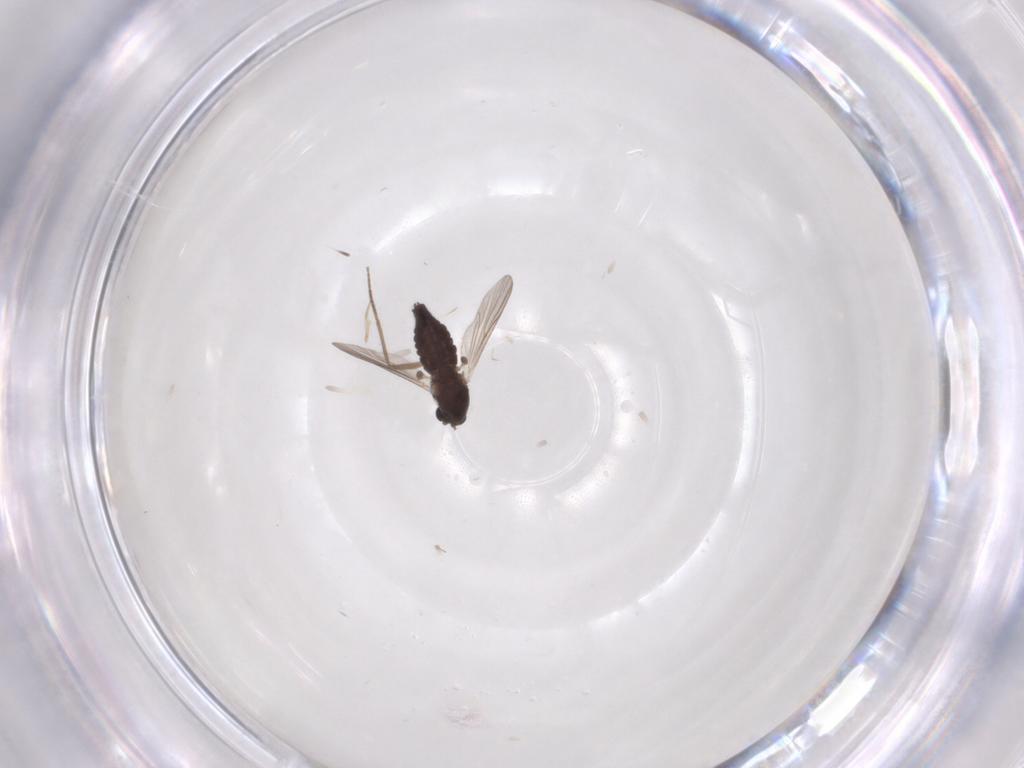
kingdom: Animalia
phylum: Arthropoda
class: Insecta
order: Diptera
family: Chironomidae
